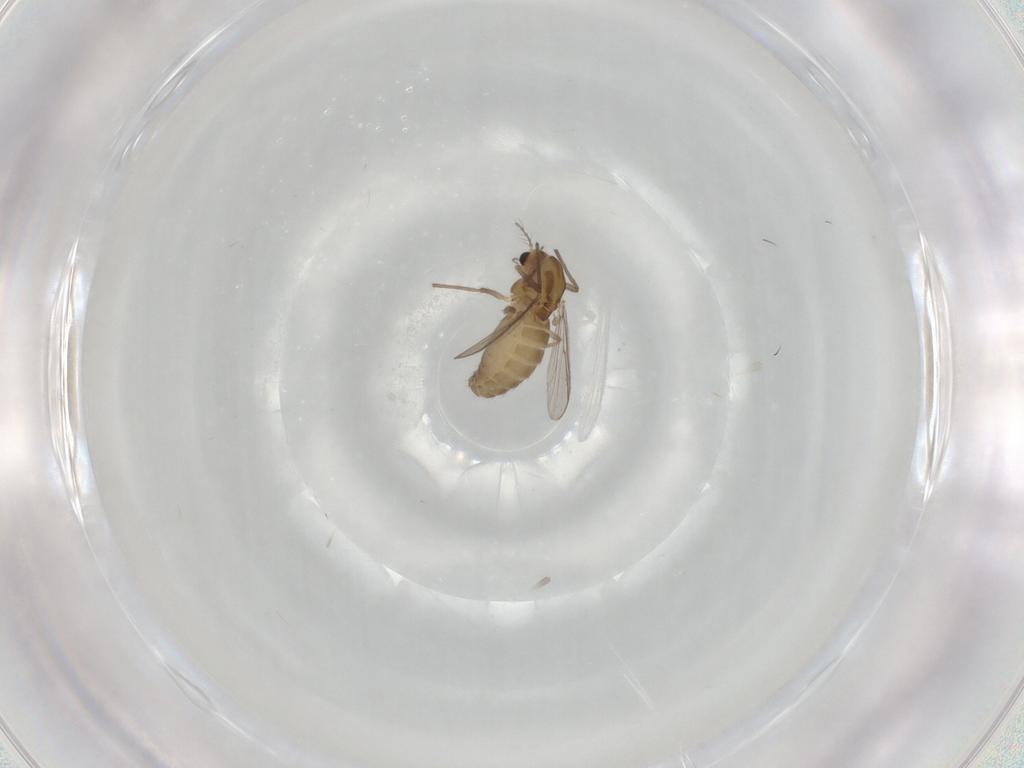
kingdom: Animalia
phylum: Arthropoda
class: Insecta
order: Diptera
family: Chironomidae
